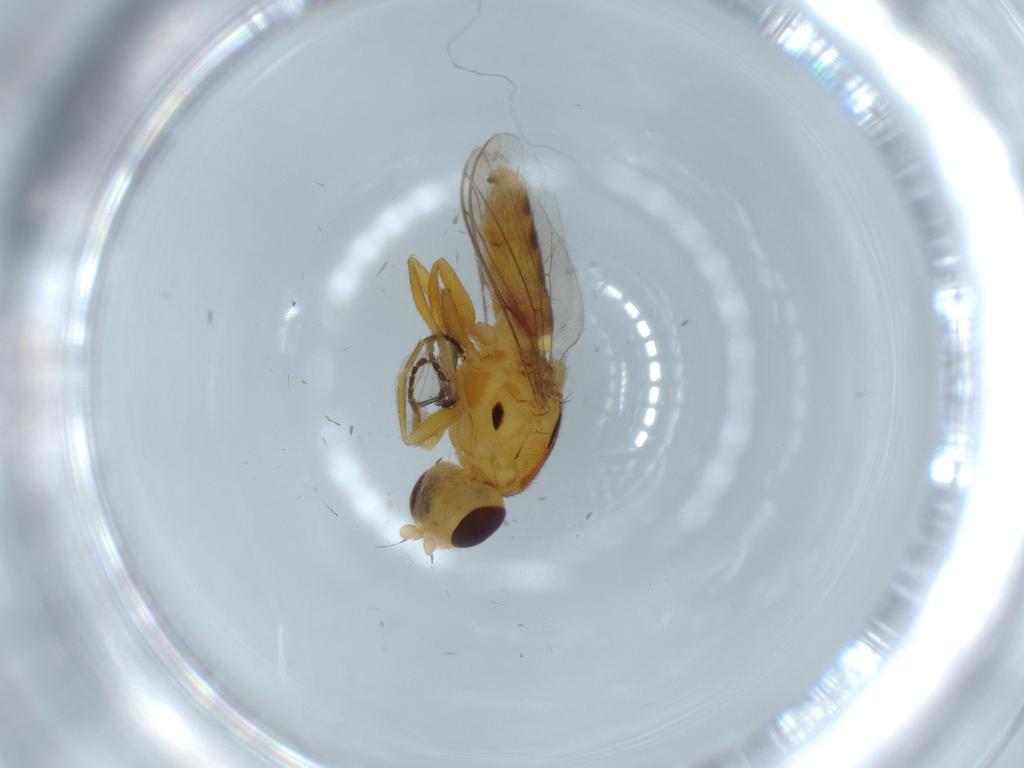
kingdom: Animalia
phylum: Arthropoda
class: Insecta
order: Diptera
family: Chloropidae
